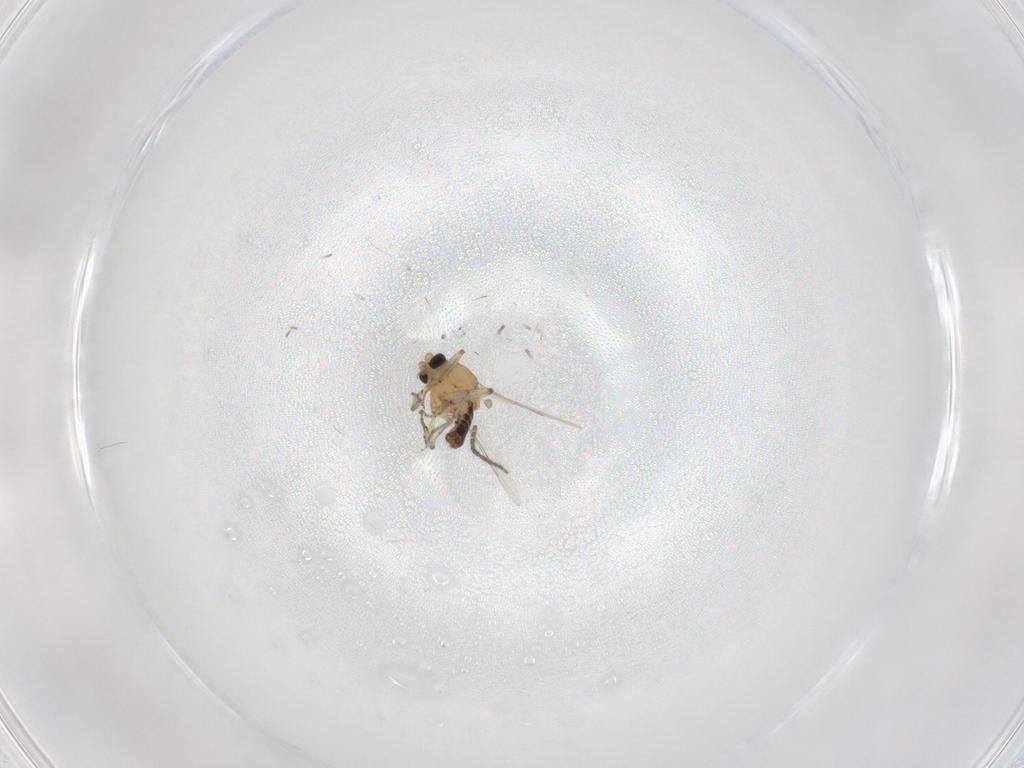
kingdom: Animalia
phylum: Arthropoda
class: Insecta
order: Diptera
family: Sciaridae
